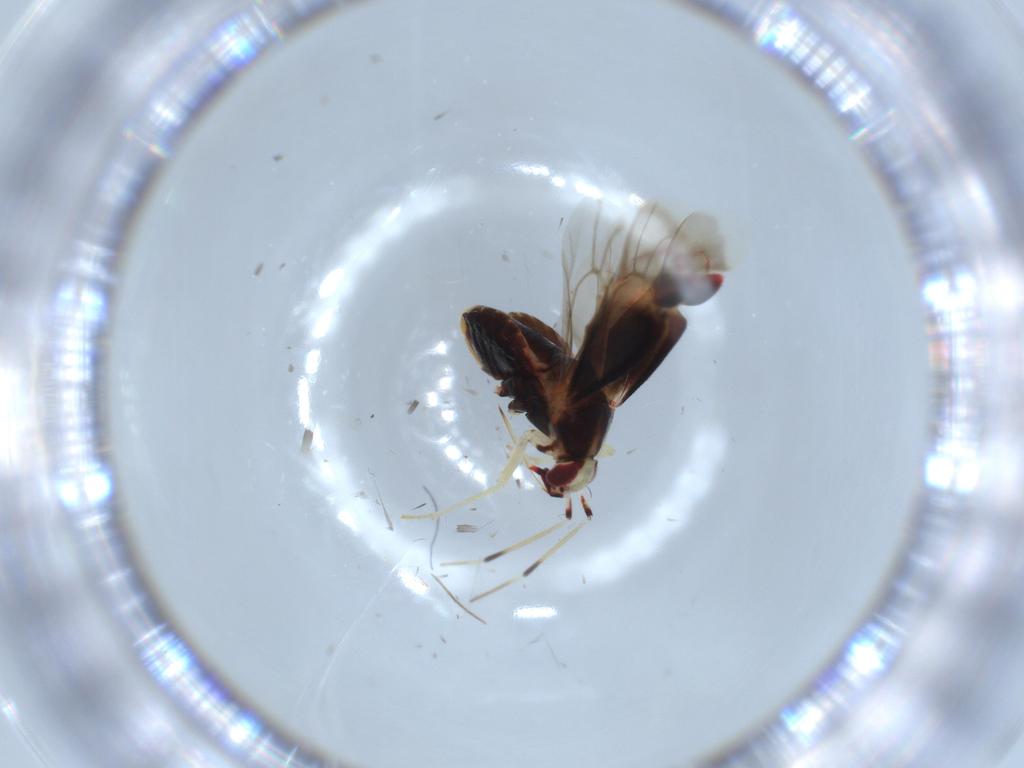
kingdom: Animalia
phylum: Arthropoda
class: Insecta
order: Hemiptera
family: Miridae
